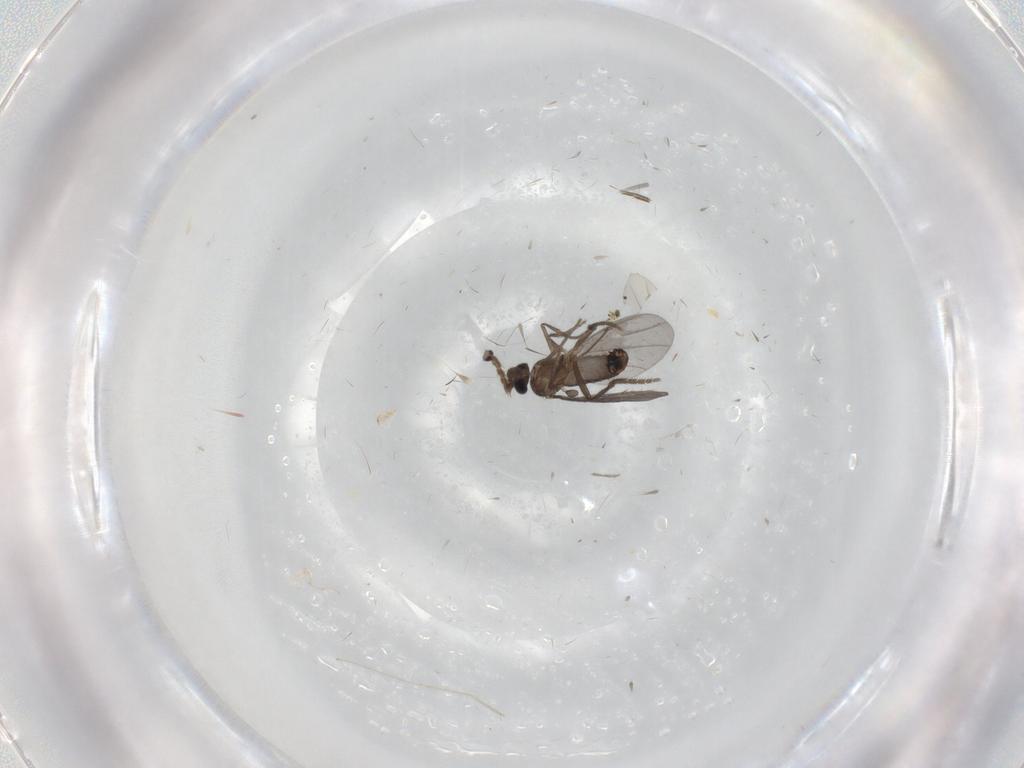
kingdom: Animalia
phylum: Arthropoda
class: Insecta
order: Diptera
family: Phoridae
